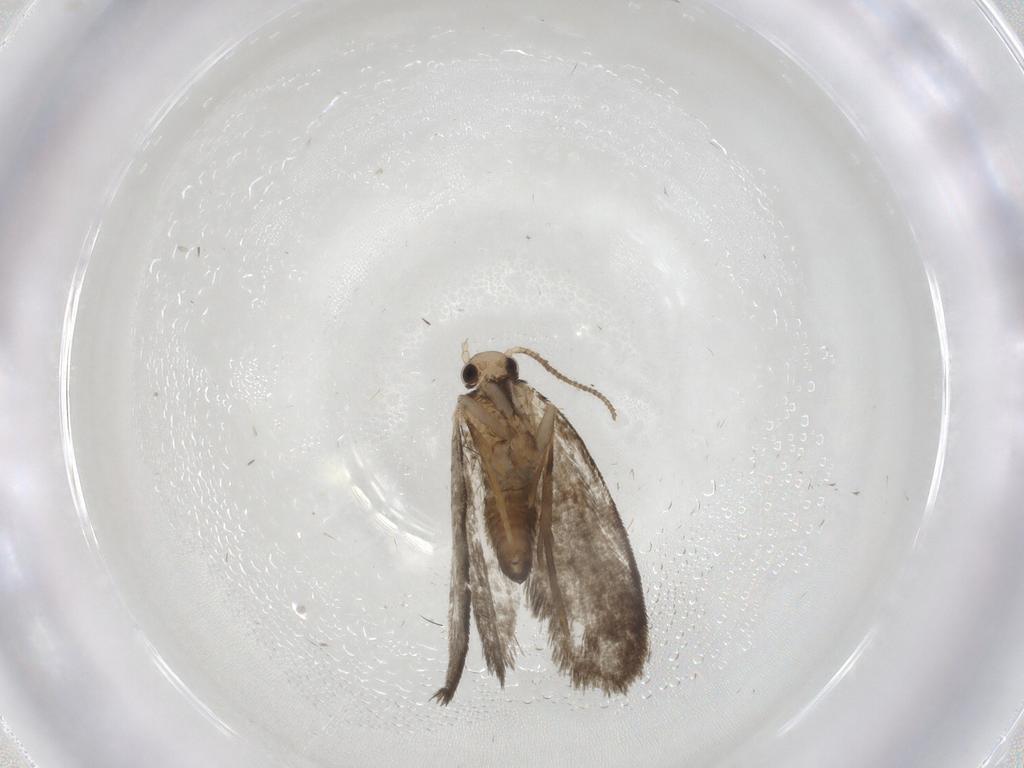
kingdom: Animalia
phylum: Arthropoda
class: Insecta
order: Lepidoptera
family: Psychidae
